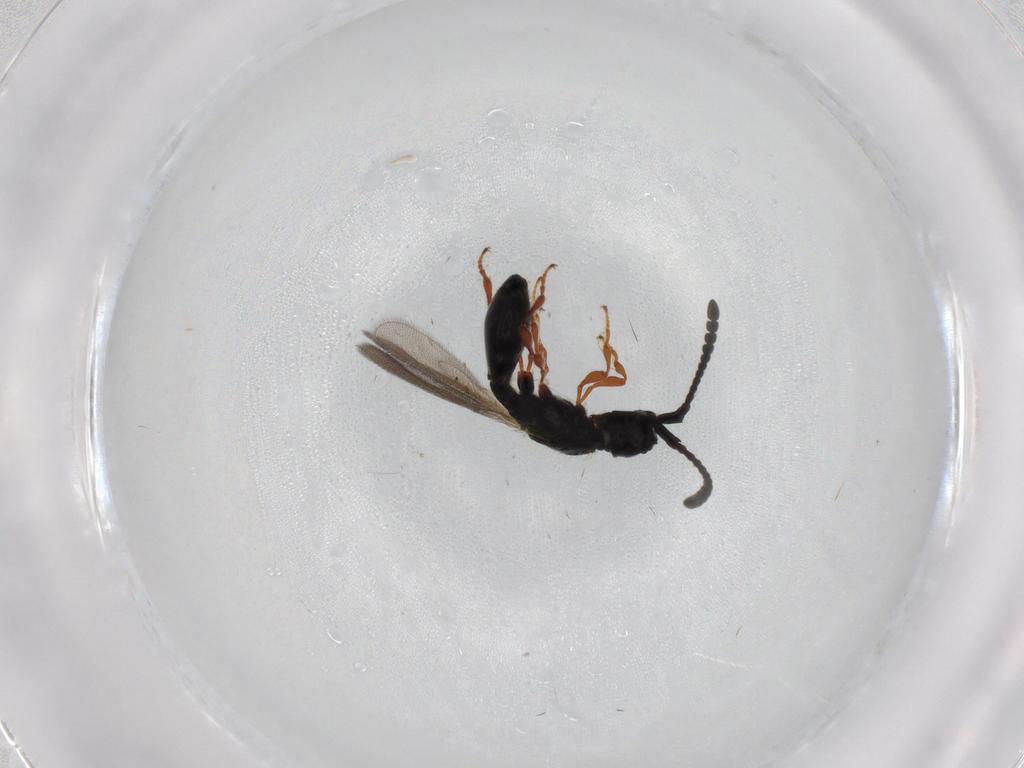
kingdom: Animalia
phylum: Arthropoda
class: Insecta
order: Hymenoptera
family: Diapriidae
